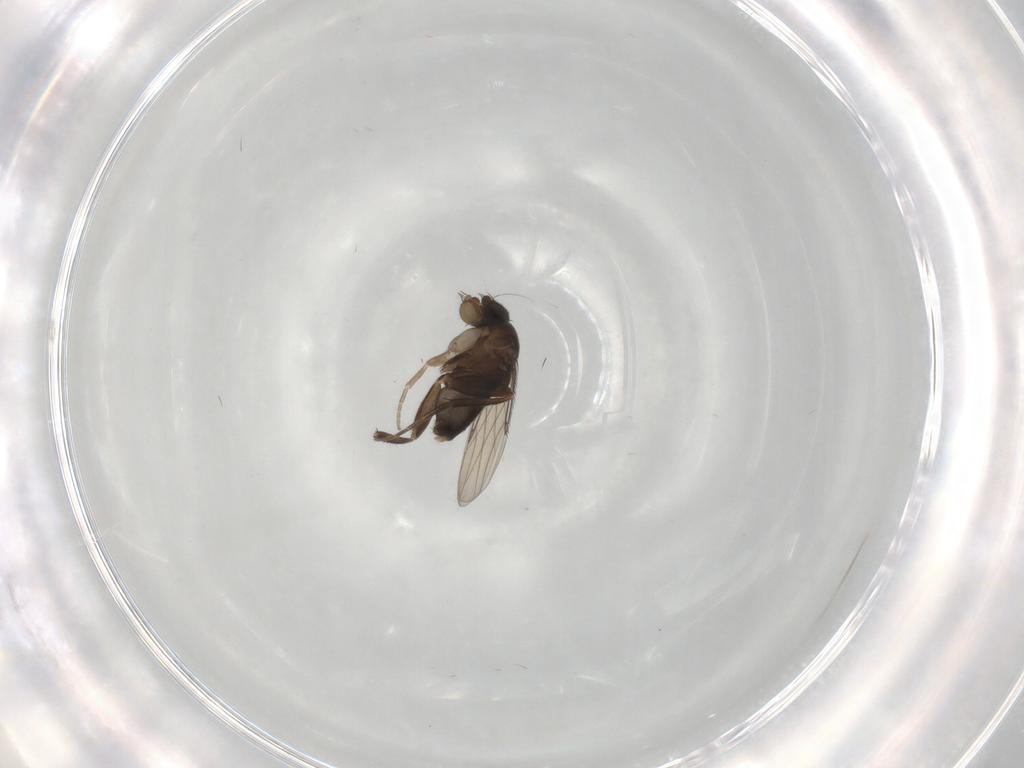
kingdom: Animalia
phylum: Arthropoda
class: Insecta
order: Diptera
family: Phoridae
